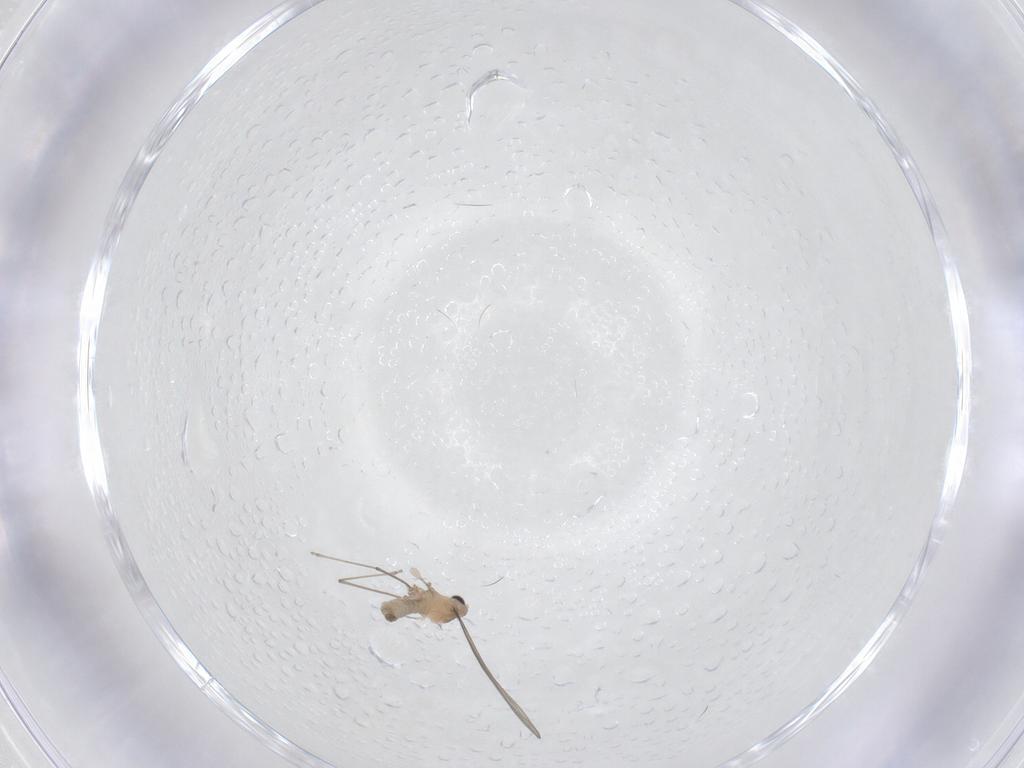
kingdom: Animalia
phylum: Arthropoda
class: Insecta
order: Diptera
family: Cecidomyiidae
